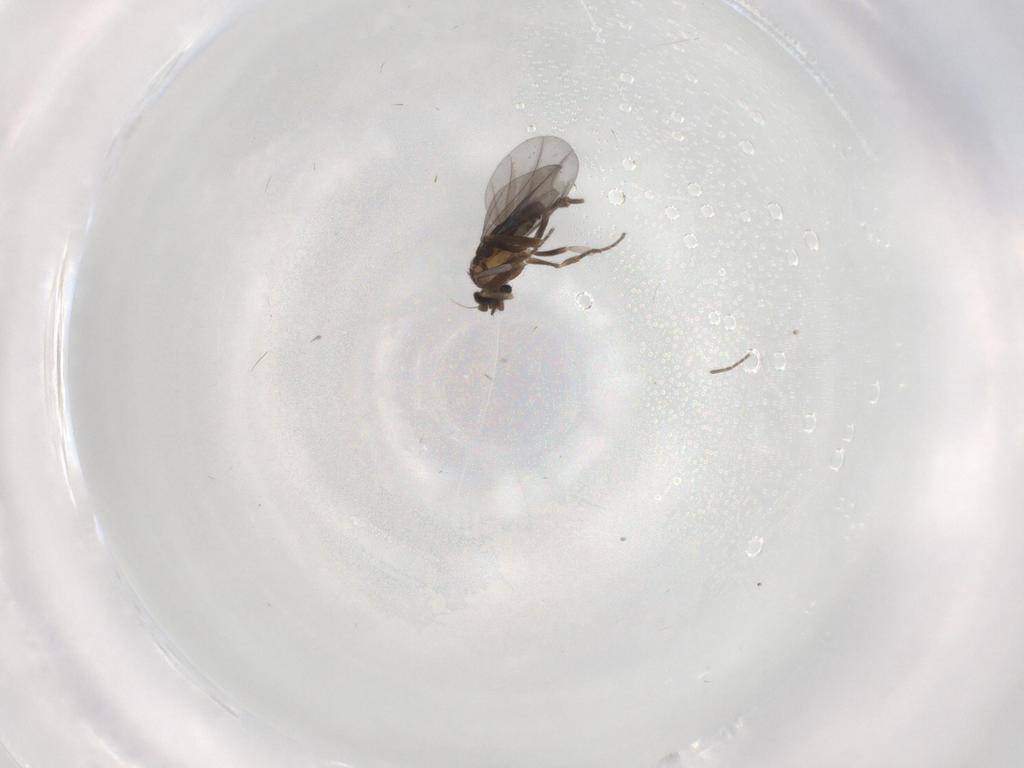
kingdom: Animalia
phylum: Arthropoda
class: Insecta
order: Diptera
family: Phoridae
